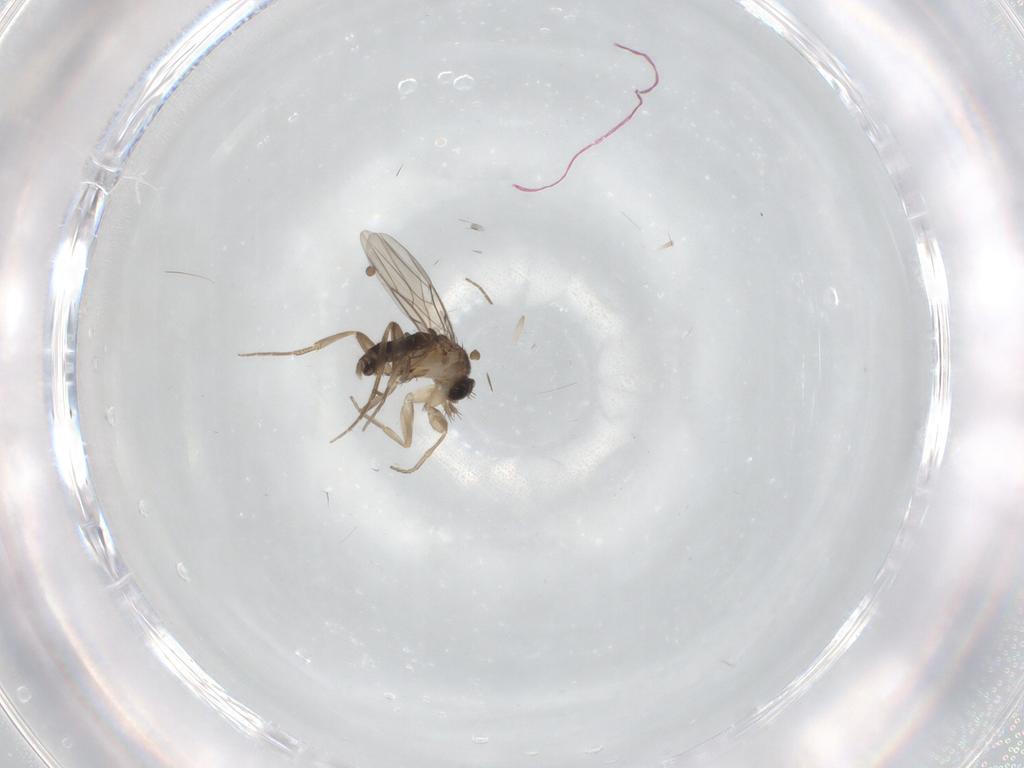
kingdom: Animalia
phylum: Arthropoda
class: Insecta
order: Diptera
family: Phoridae
